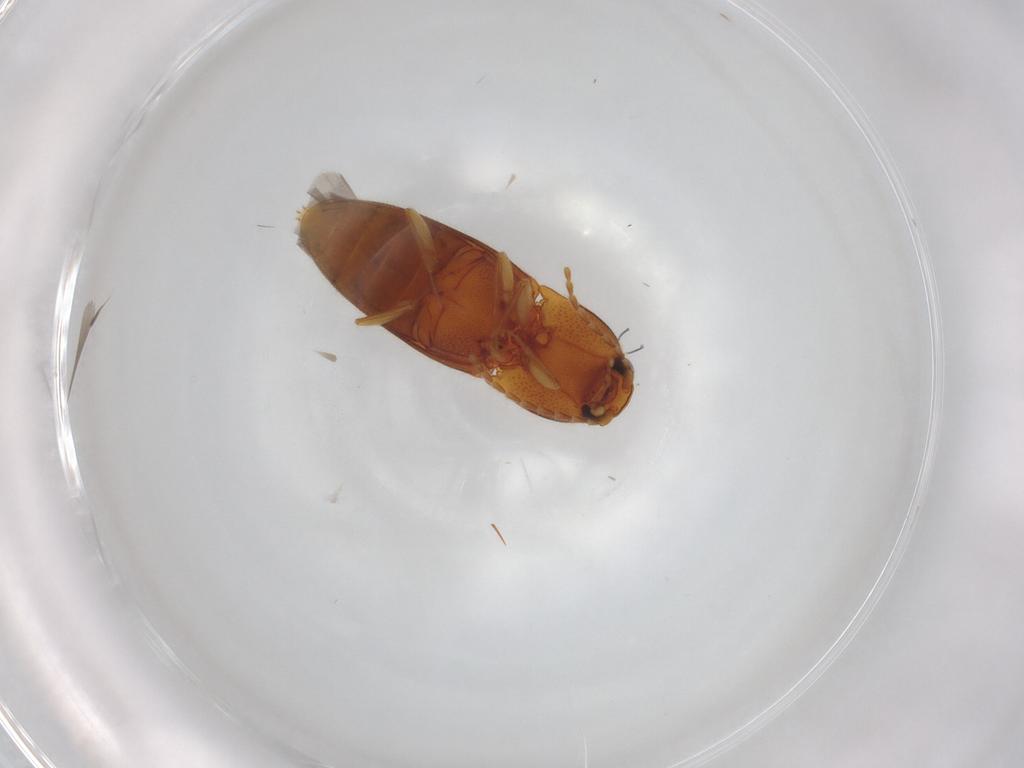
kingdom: Animalia
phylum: Arthropoda
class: Insecta
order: Coleoptera
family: Elateridae
